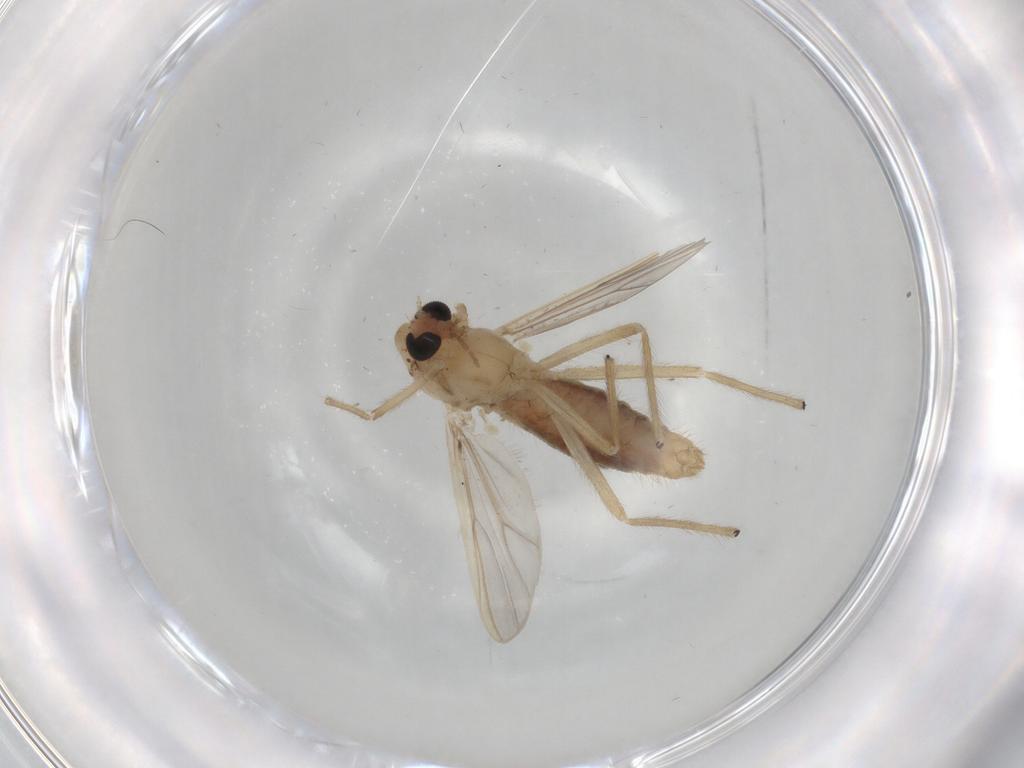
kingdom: Animalia
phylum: Arthropoda
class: Insecta
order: Diptera
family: Chironomidae
